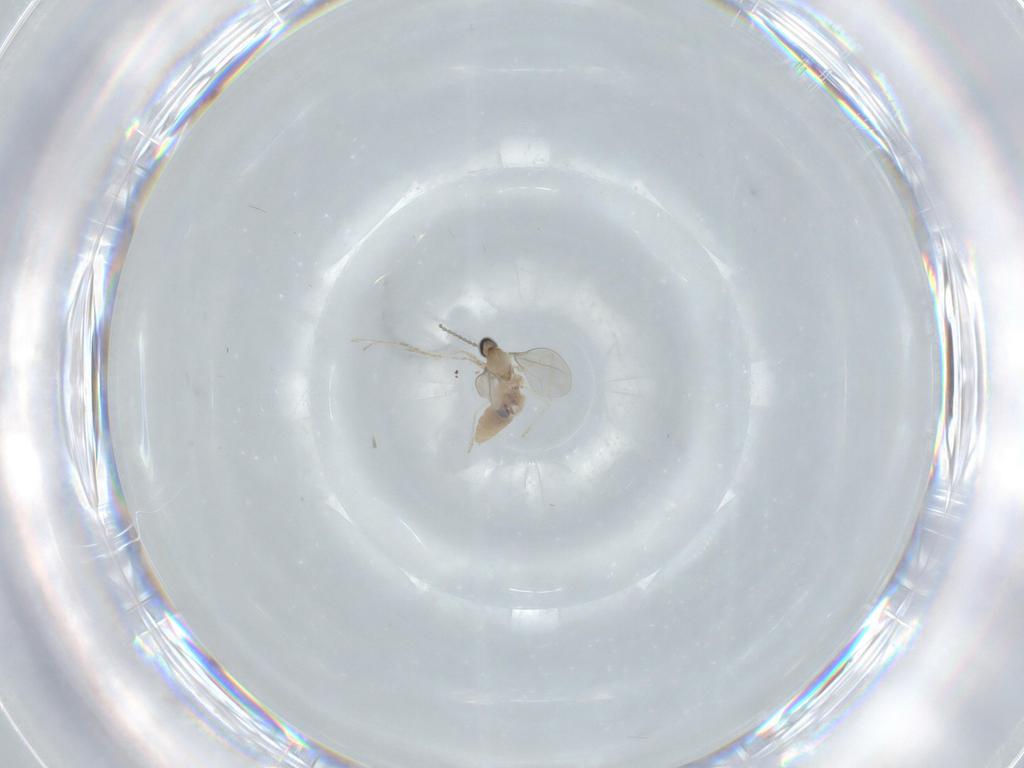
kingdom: Animalia
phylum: Arthropoda
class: Insecta
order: Diptera
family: Cecidomyiidae
